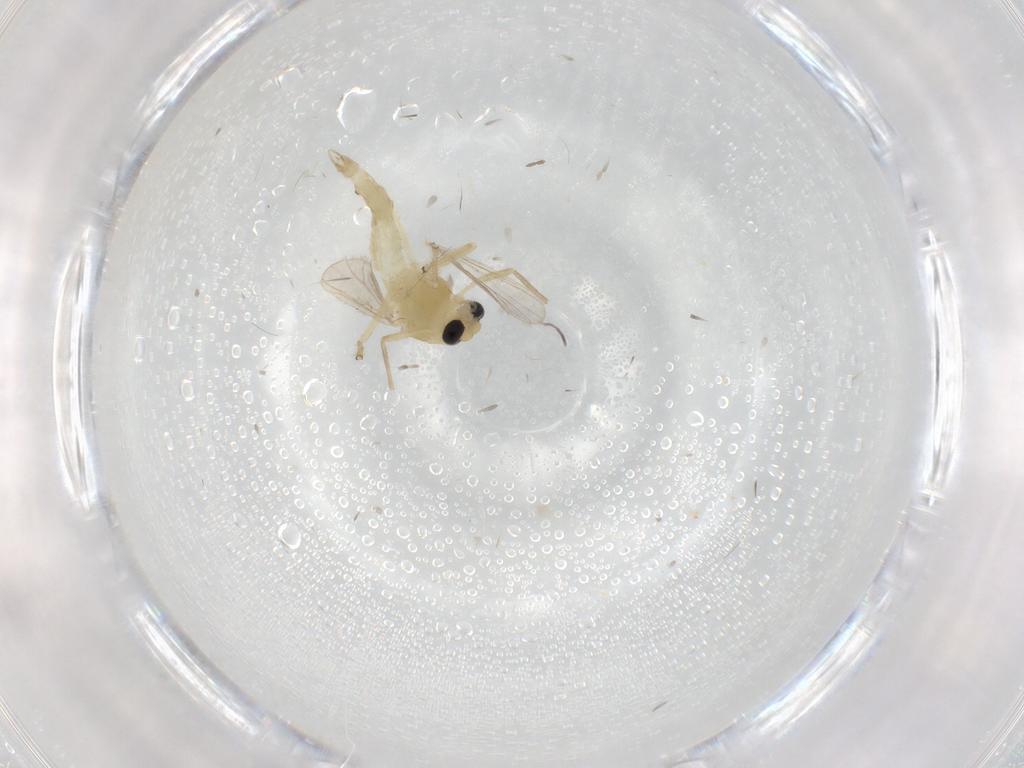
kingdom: Animalia
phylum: Arthropoda
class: Insecta
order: Diptera
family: Chironomidae
